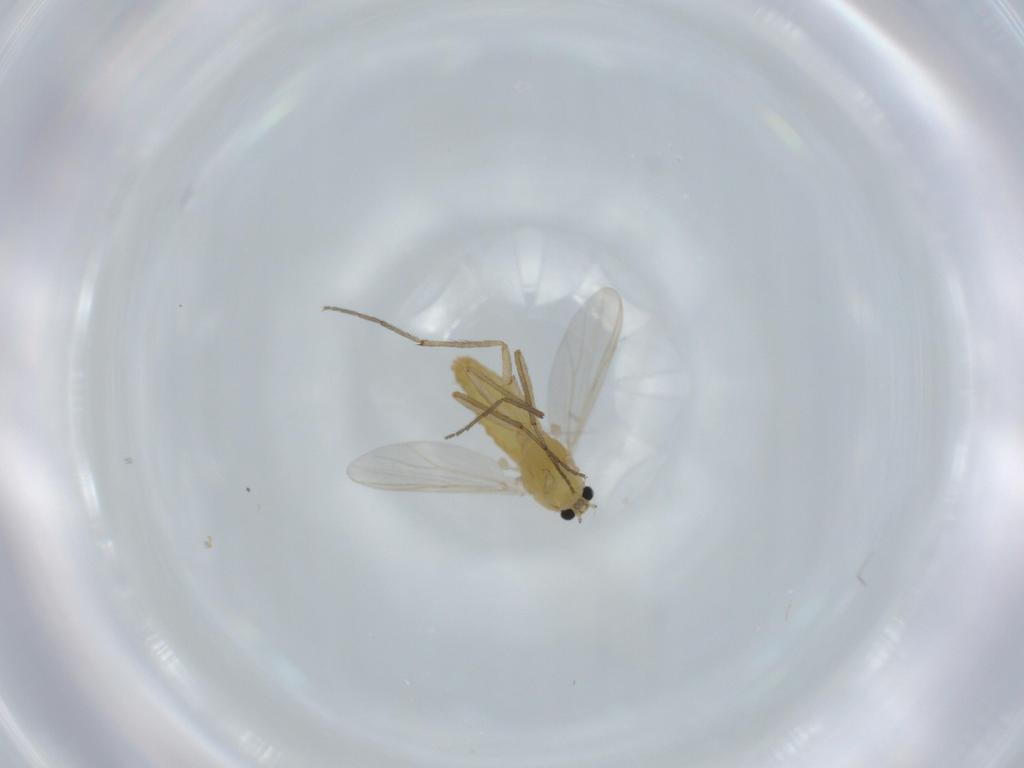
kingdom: Animalia
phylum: Arthropoda
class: Insecta
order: Diptera
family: Chironomidae
